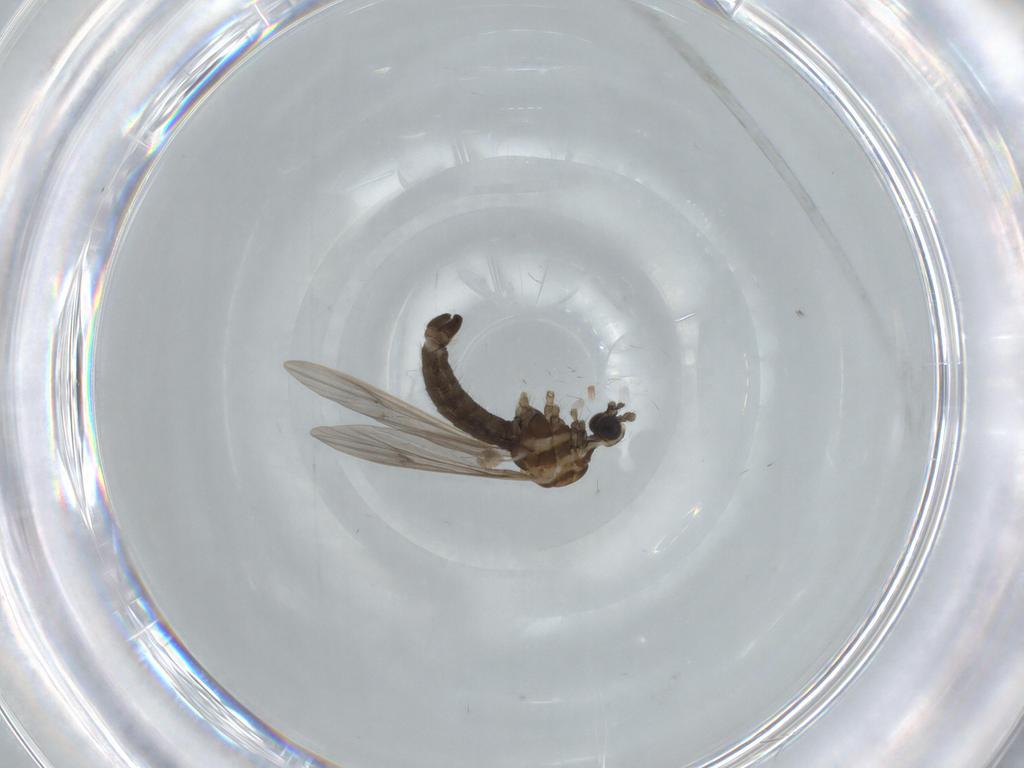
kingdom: Animalia
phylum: Arthropoda
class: Insecta
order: Diptera
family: Limoniidae
